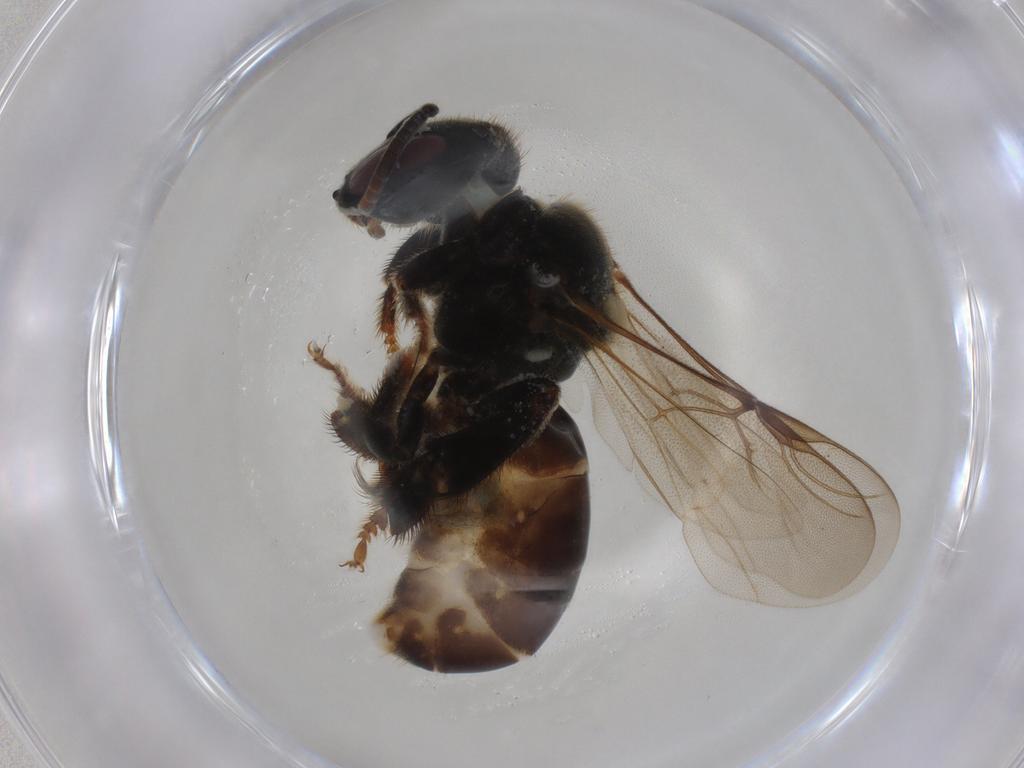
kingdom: Animalia
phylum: Arthropoda
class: Insecta
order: Hymenoptera
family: Apidae
